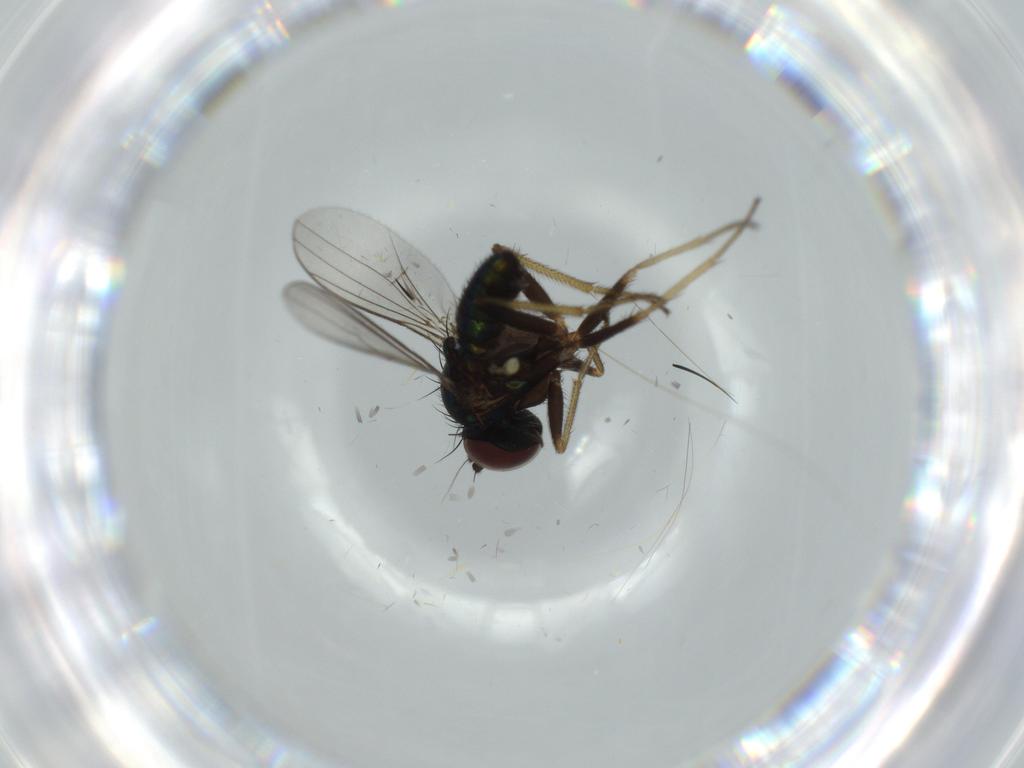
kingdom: Animalia
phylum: Arthropoda
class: Insecta
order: Diptera
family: Dolichopodidae
